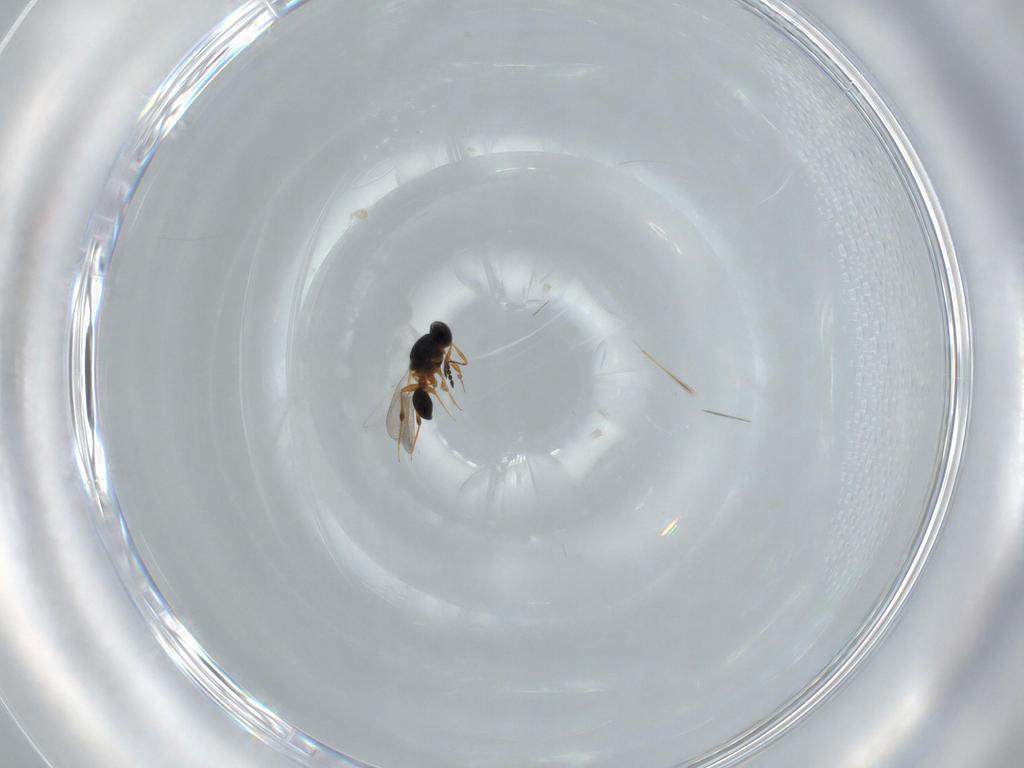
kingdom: Animalia
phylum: Arthropoda
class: Insecta
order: Hymenoptera
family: Platygastridae
